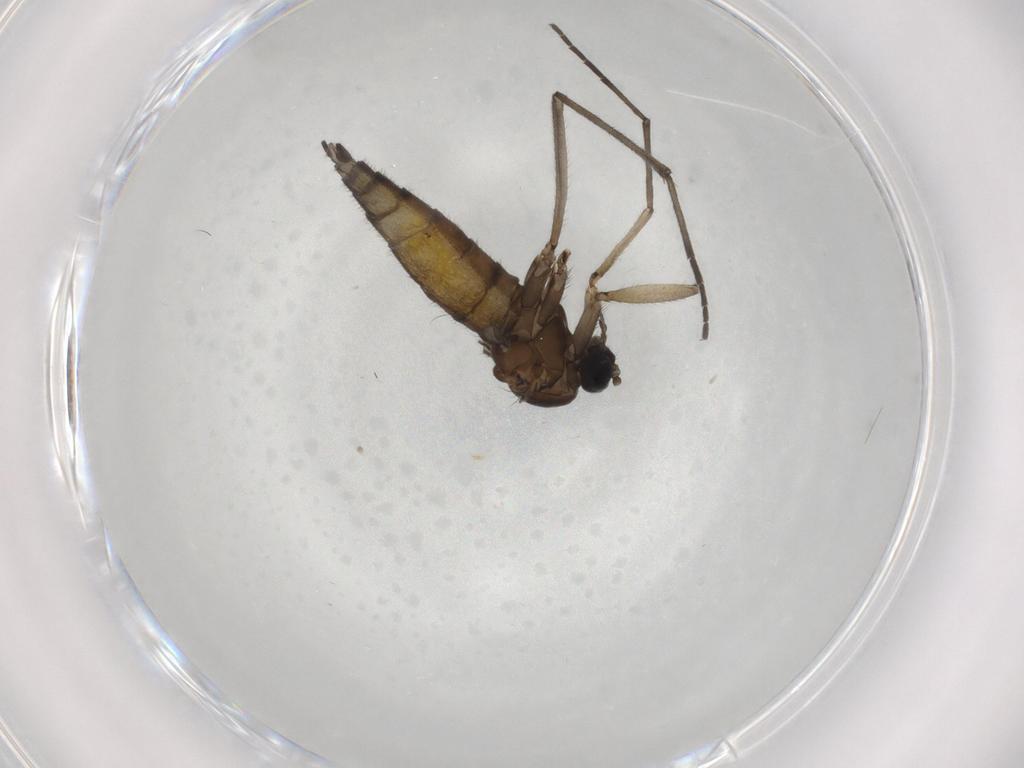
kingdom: Animalia
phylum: Arthropoda
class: Insecta
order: Diptera
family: Sciaridae
